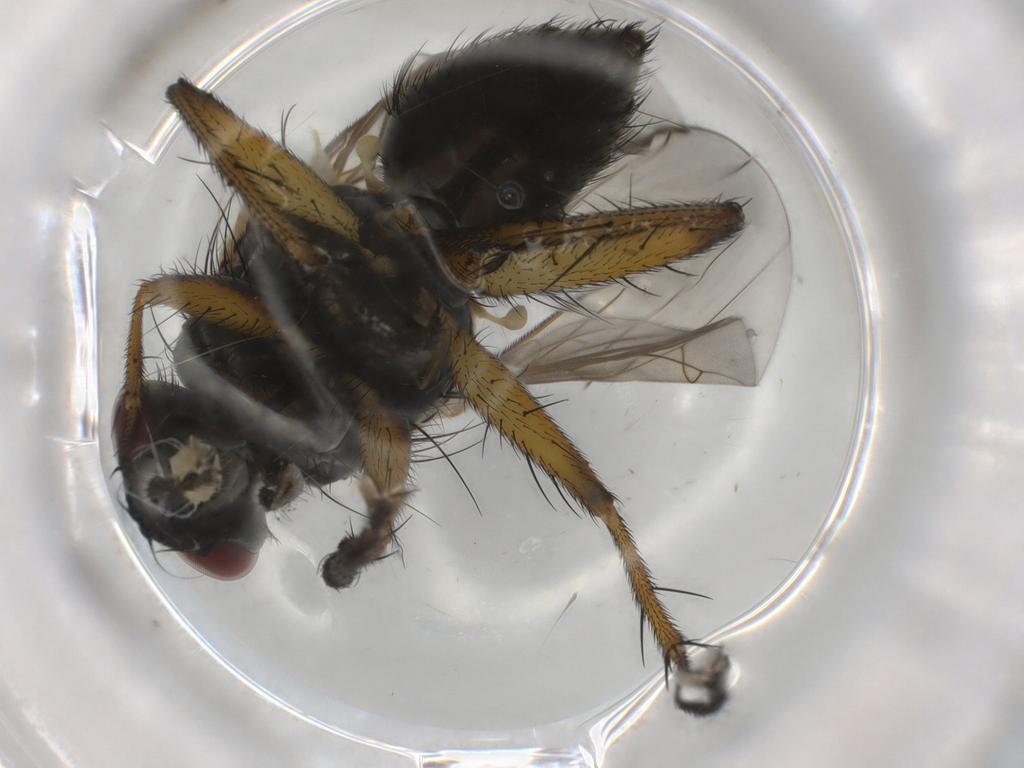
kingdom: Animalia
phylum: Arthropoda
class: Insecta
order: Diptera
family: Muscidae
